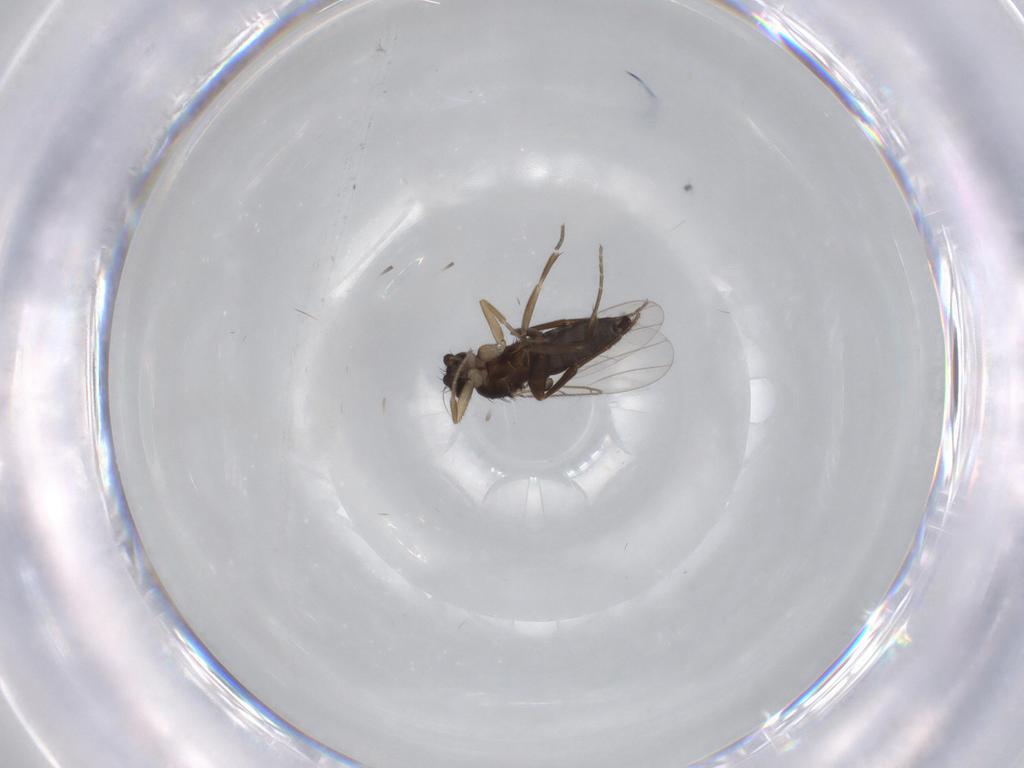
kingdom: Animalia
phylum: Arthropoda
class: Insecta
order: Diptera
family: Phoridae
